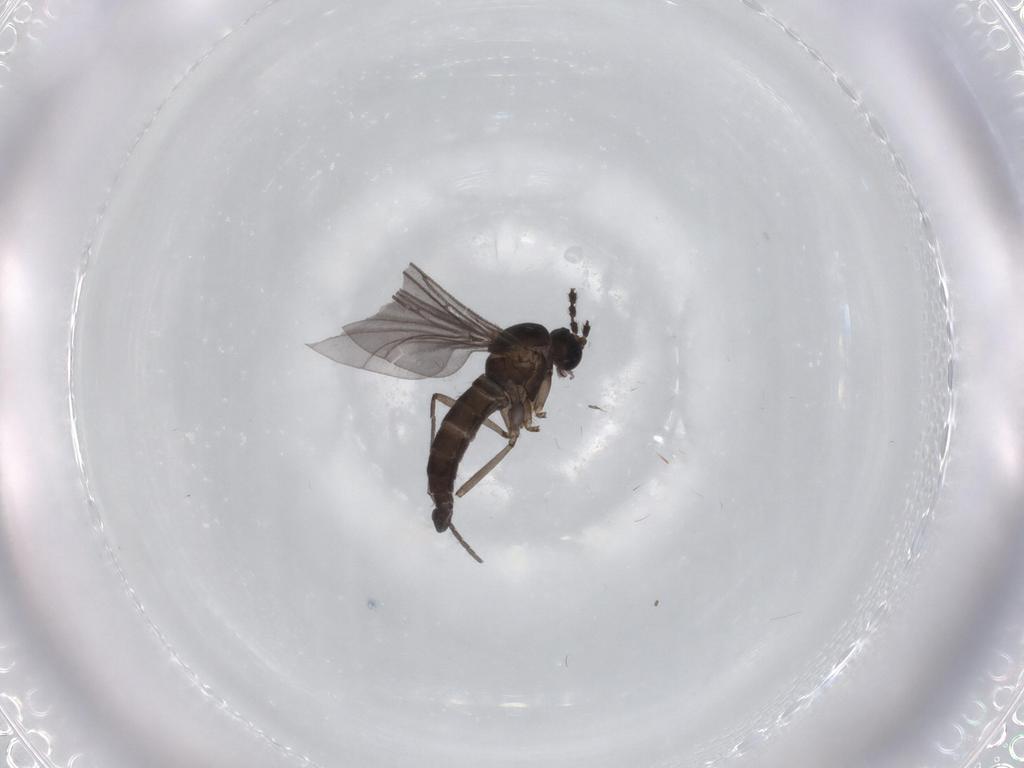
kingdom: Animalia
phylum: Arthropoda
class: Insecta
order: Diptera
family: Sciaridae
